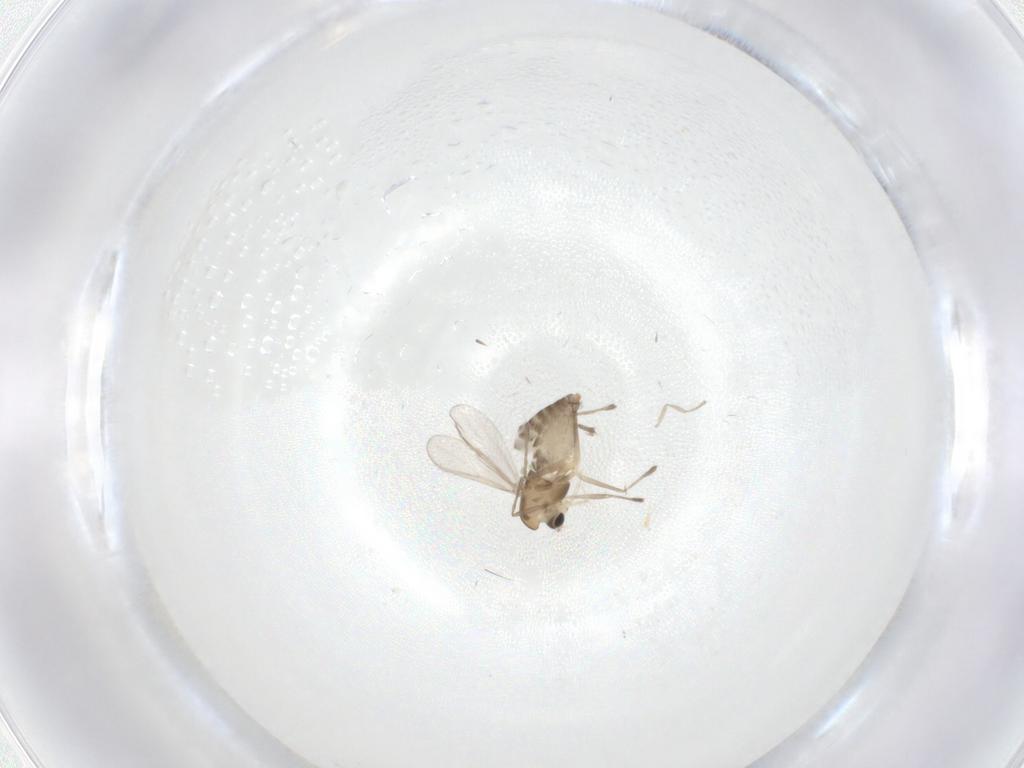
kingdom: Animalia
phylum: Arthropoda
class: Insecta
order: Diptera
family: Chironomidae
